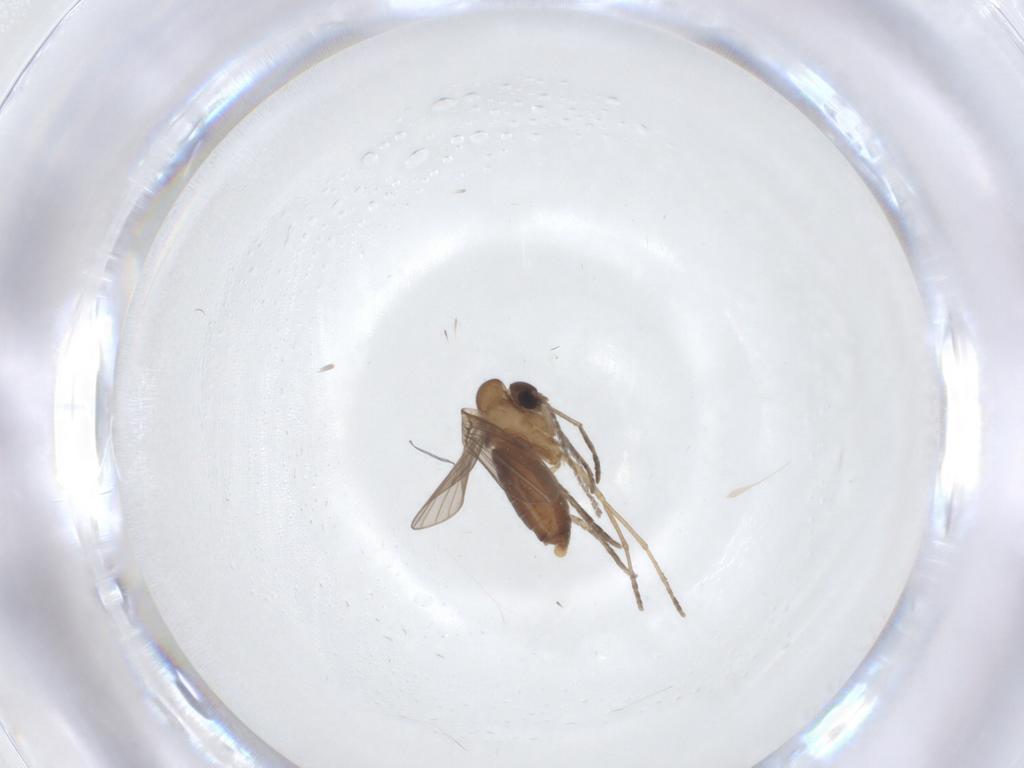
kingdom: Animalia
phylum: Arthropoda
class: Insecta
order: Diptera
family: Sciaridae
